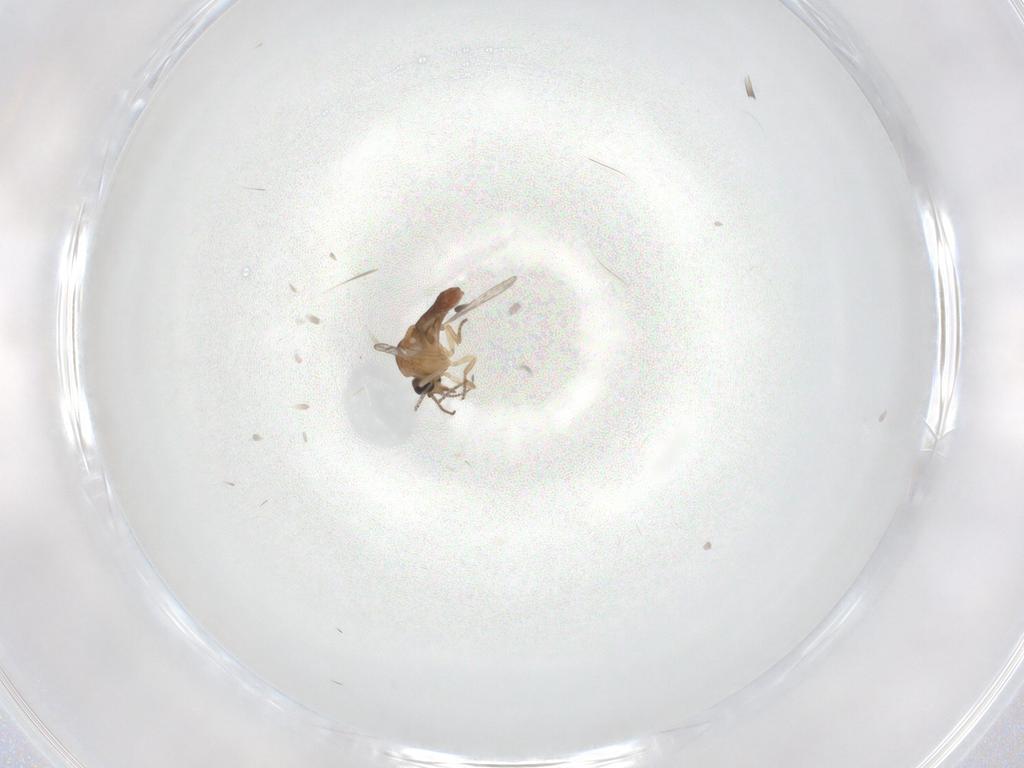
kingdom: Animalia
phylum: Arthropoda
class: Insecta
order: Diptera
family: Ceratopogonidae
